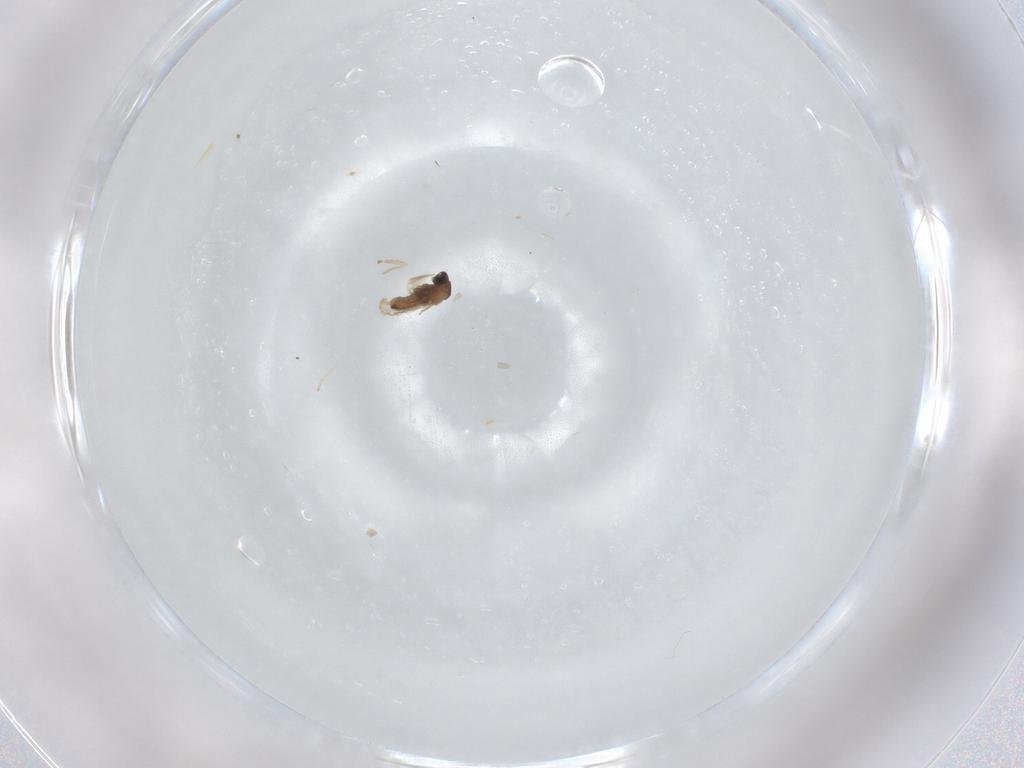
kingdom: Animalia
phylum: Arthropoda
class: Insecta
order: Diptera
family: Cecidomyiidae
